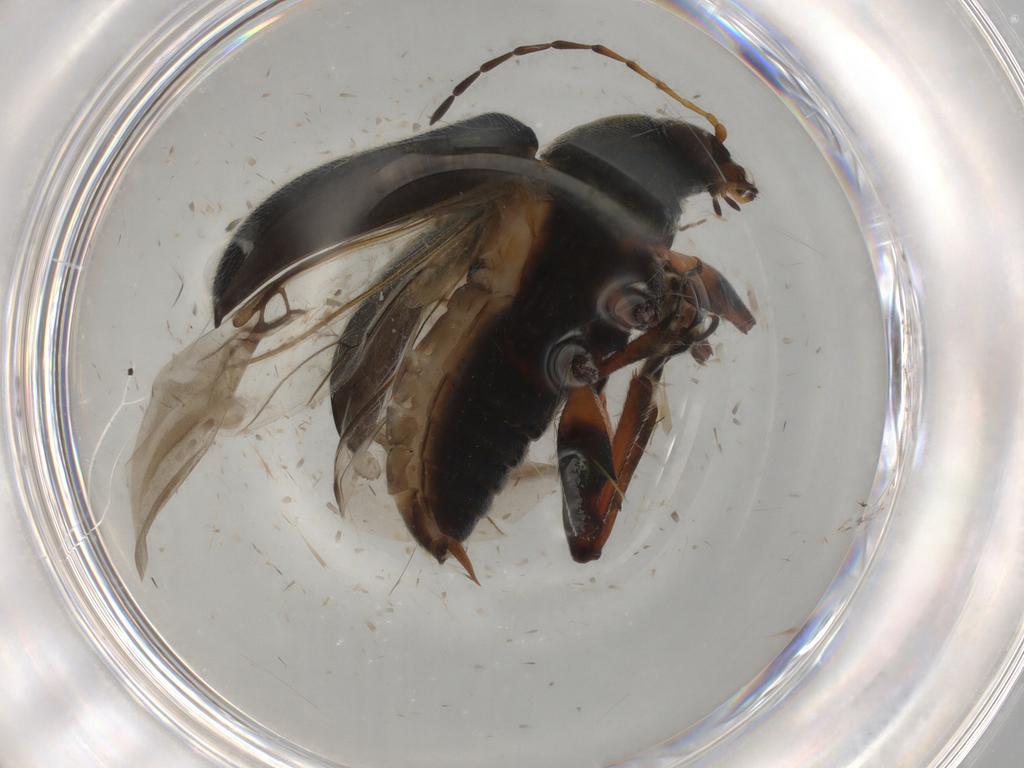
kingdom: Animalia
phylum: Arthropoda
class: Insecta
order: Coleoptera
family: Chrysomelidae
